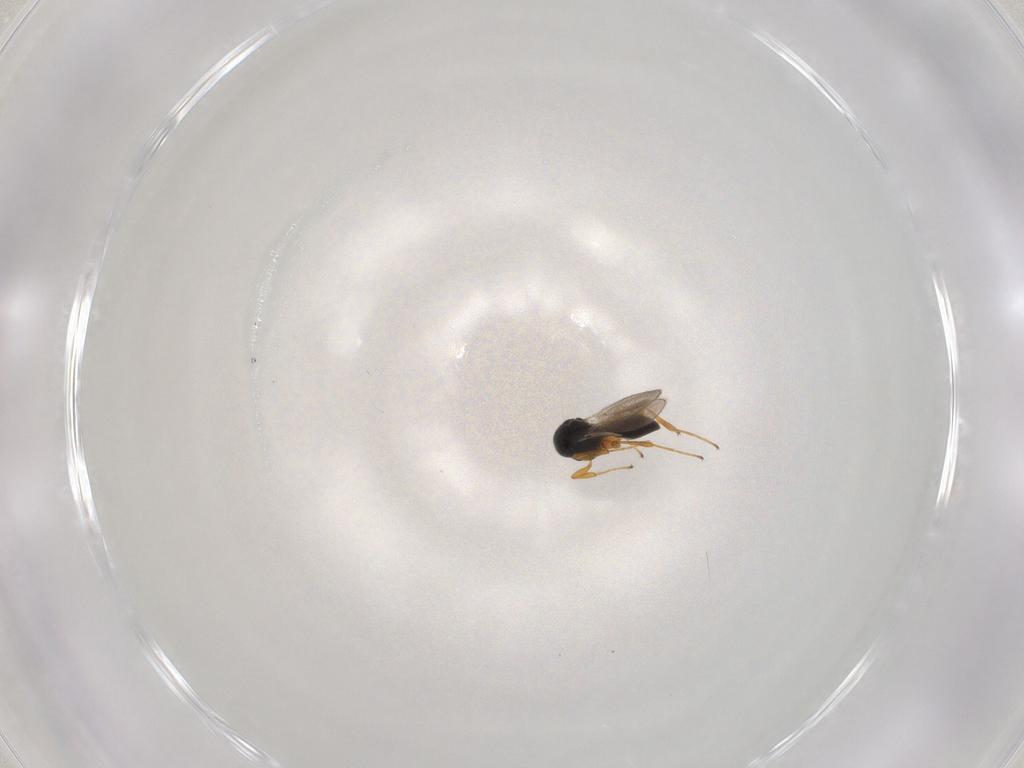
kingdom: Animalia
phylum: Arthropoda
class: Insecta
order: Hymenoptera
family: Platygastridae
